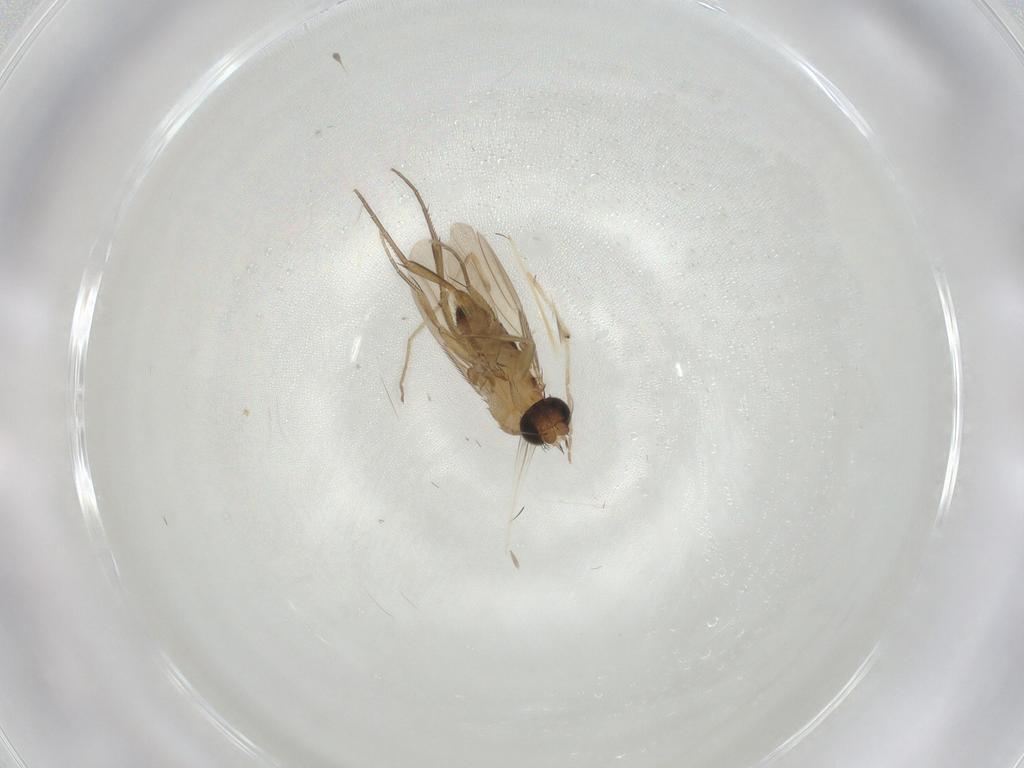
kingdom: Animalia
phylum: Arthropoda
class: Insecta
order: Diptera
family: Phoridae
